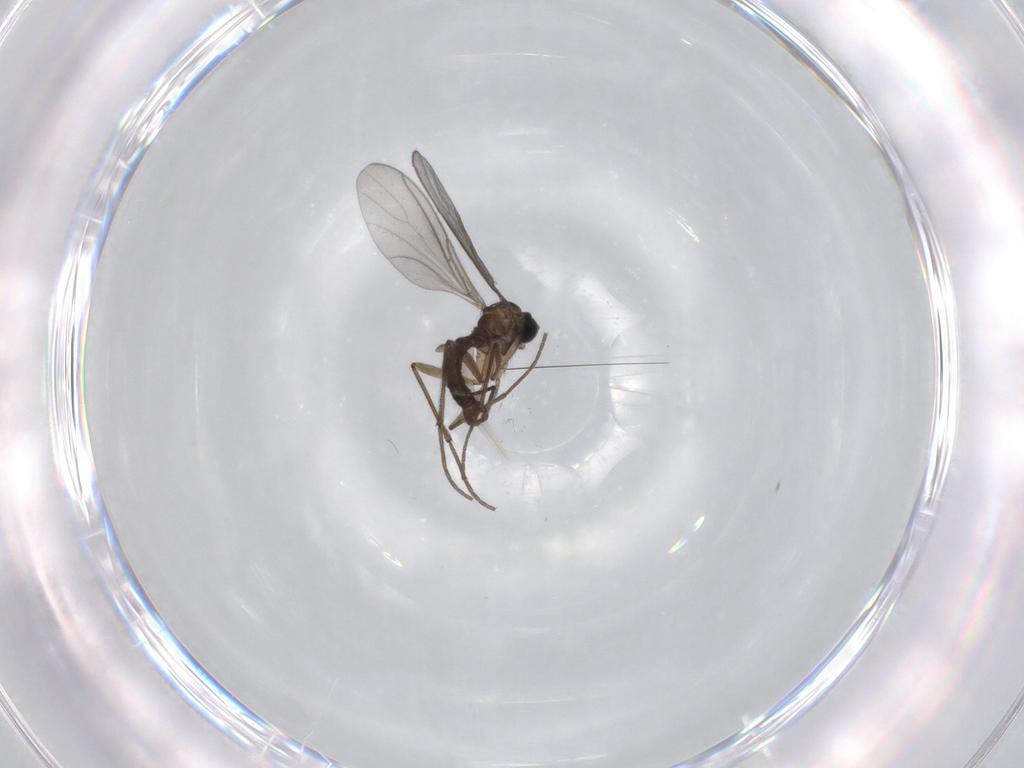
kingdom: Animalia
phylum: Arthropoda
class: Insecta
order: Diptera
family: Sciaridae
